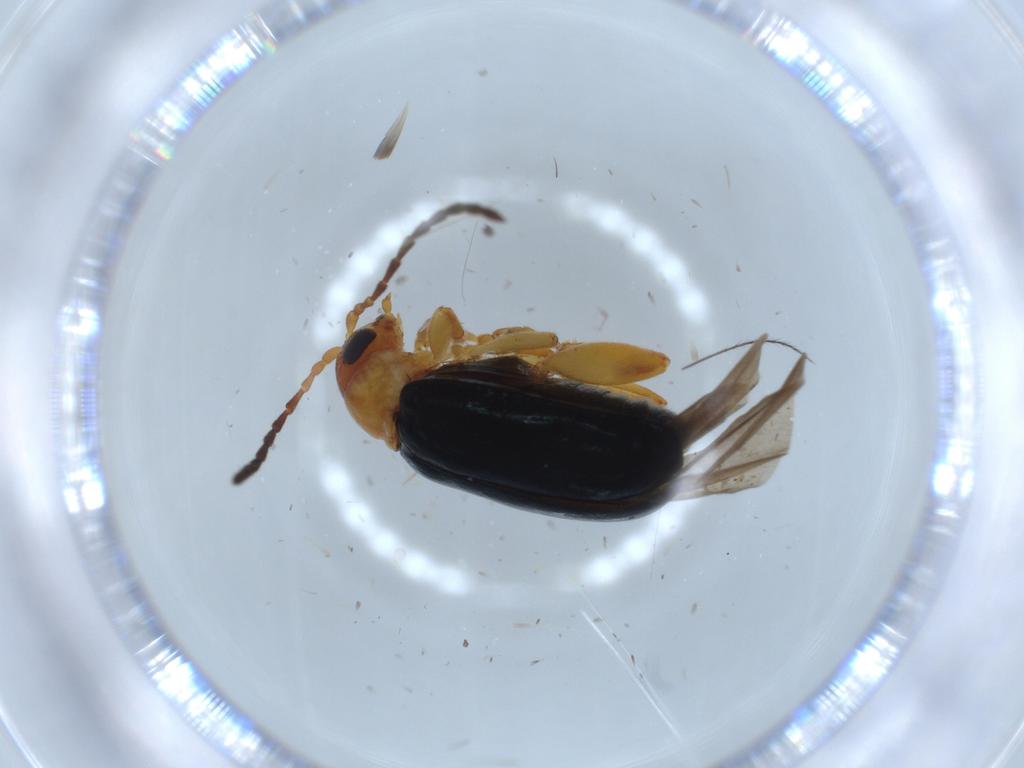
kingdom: Animalia
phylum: Arthropoda
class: Insecta
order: Coleoptera
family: Chrysomelidae
